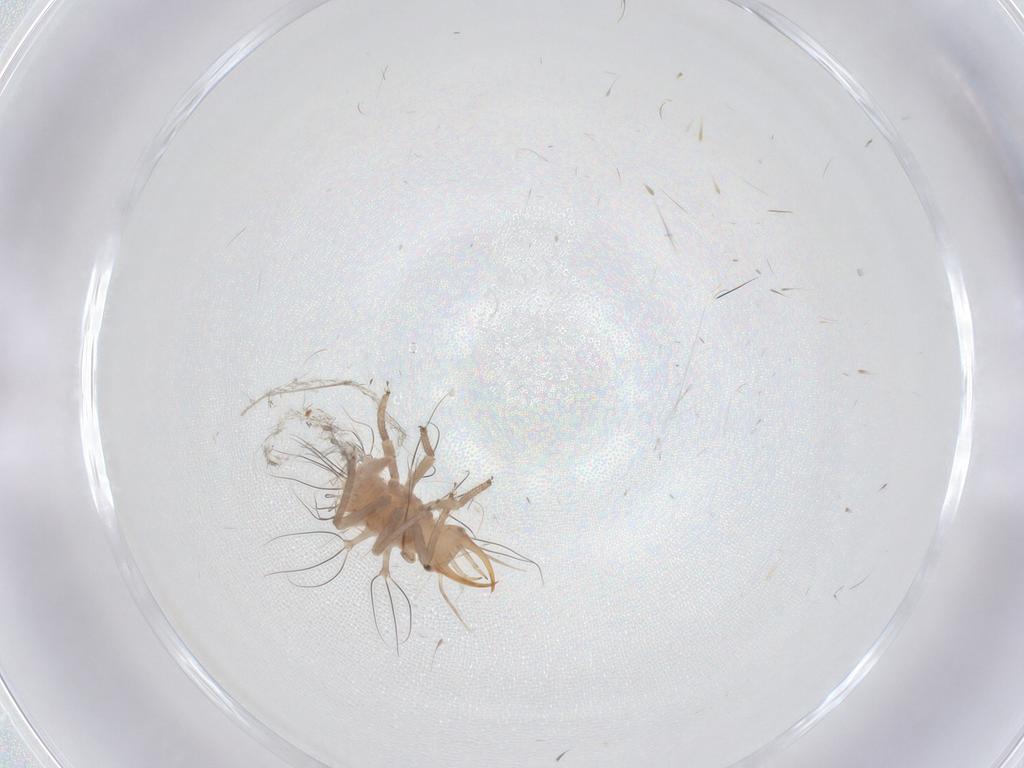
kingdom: Animalia
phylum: Arthropoda
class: Insecta
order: Neuroptera
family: Chrysopidae
